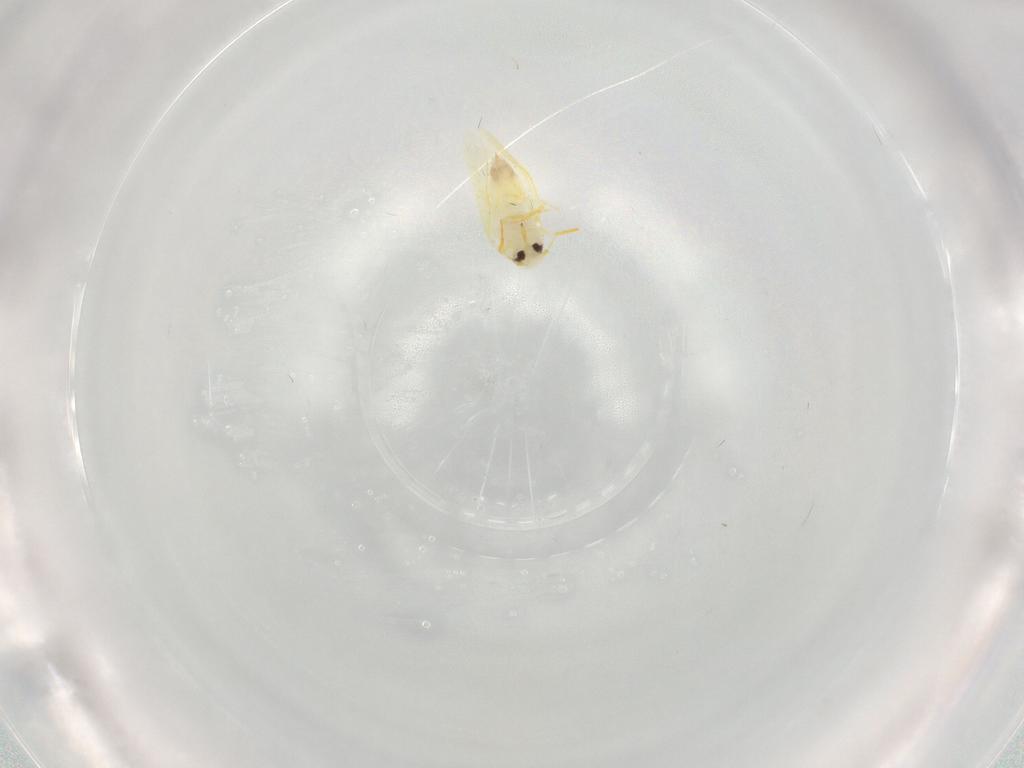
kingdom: Animalia
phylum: Arthropoda
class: Insecta
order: Hemiptera
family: Aleyrodidae
